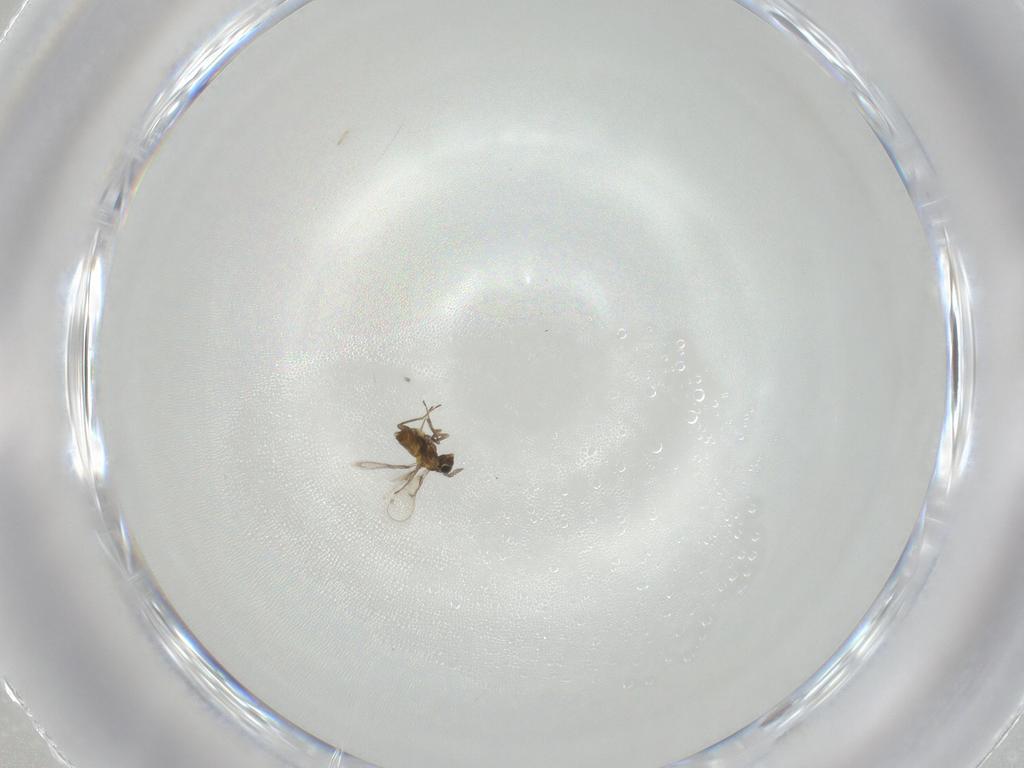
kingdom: Animalia
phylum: Arthropoda
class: Insecta
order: Hymenoptera
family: Trichogrammatidae
